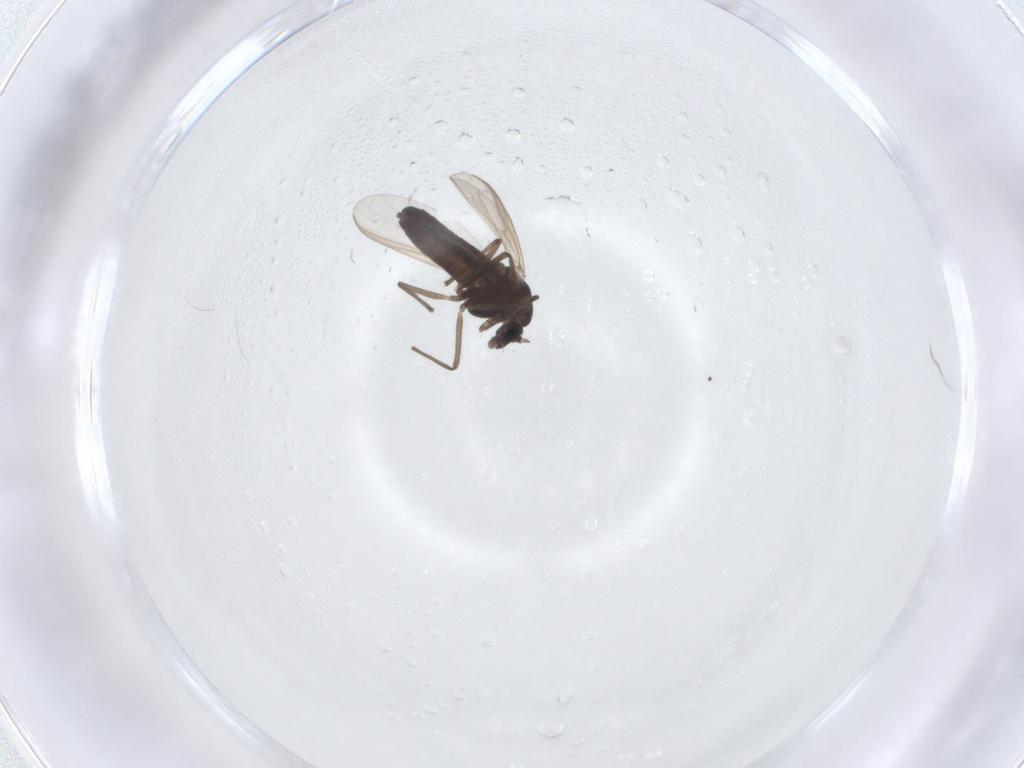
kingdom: Animalia
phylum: Arthropoda
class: Insecta
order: Diptera
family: Chironomidae
